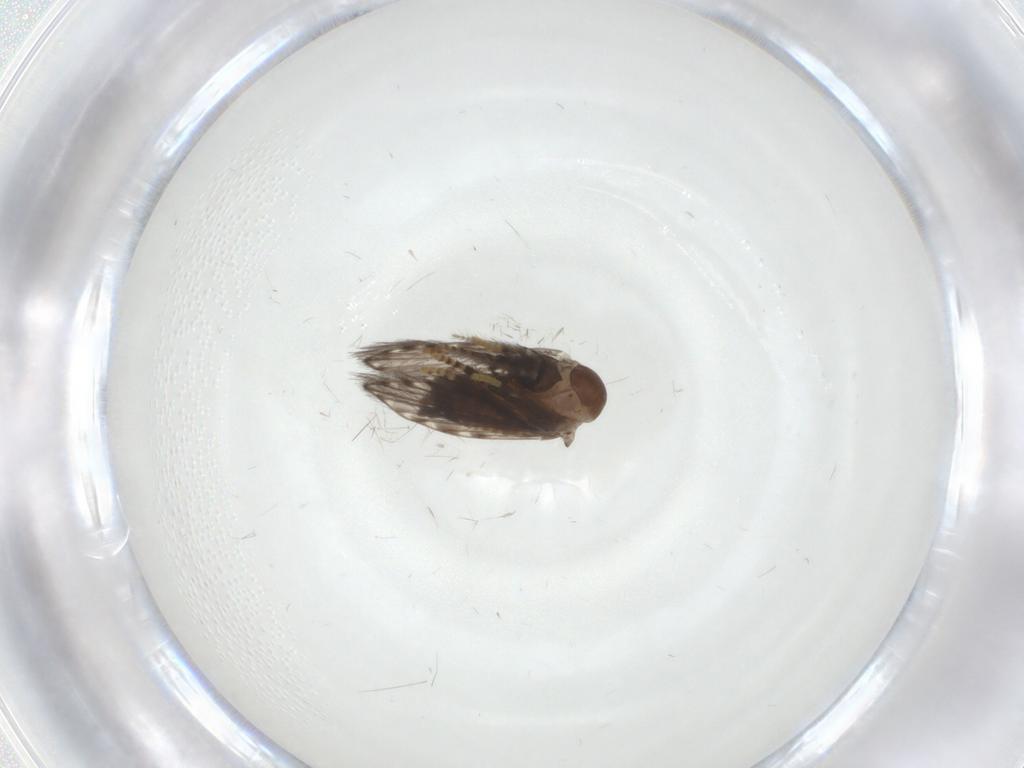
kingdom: Animalia
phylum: Arthropoda
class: Insecta
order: Diptera
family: Psychodidae
